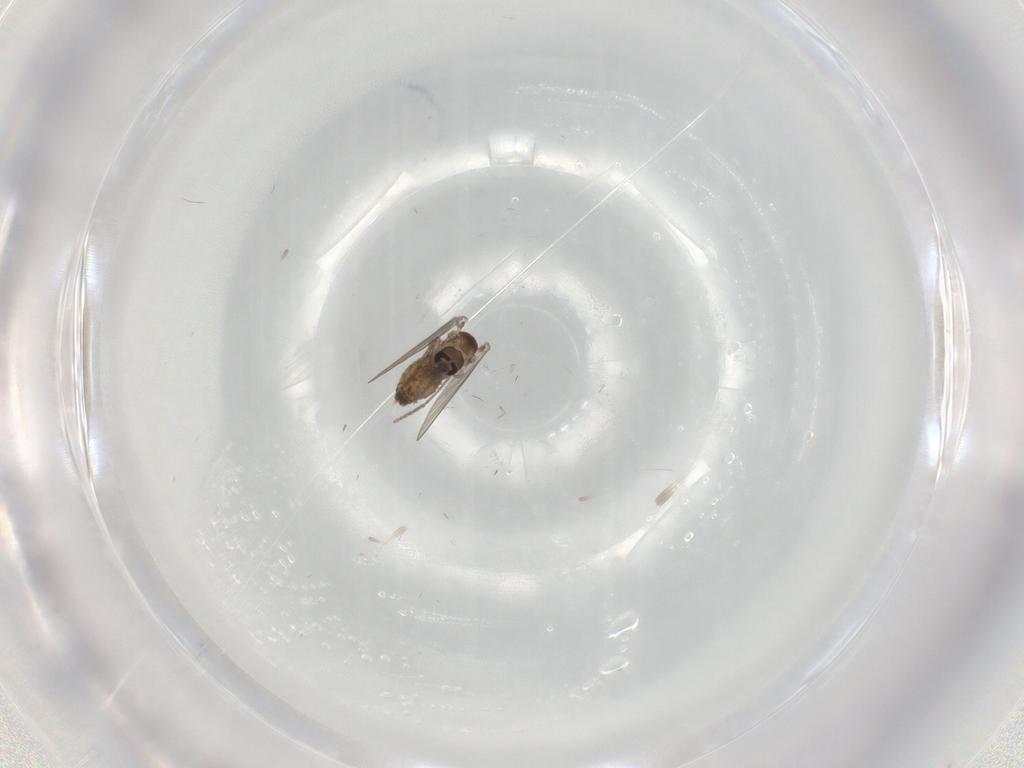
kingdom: Animalia
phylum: Arthropoda
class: Insecta
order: Diptera
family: Psychodidae
